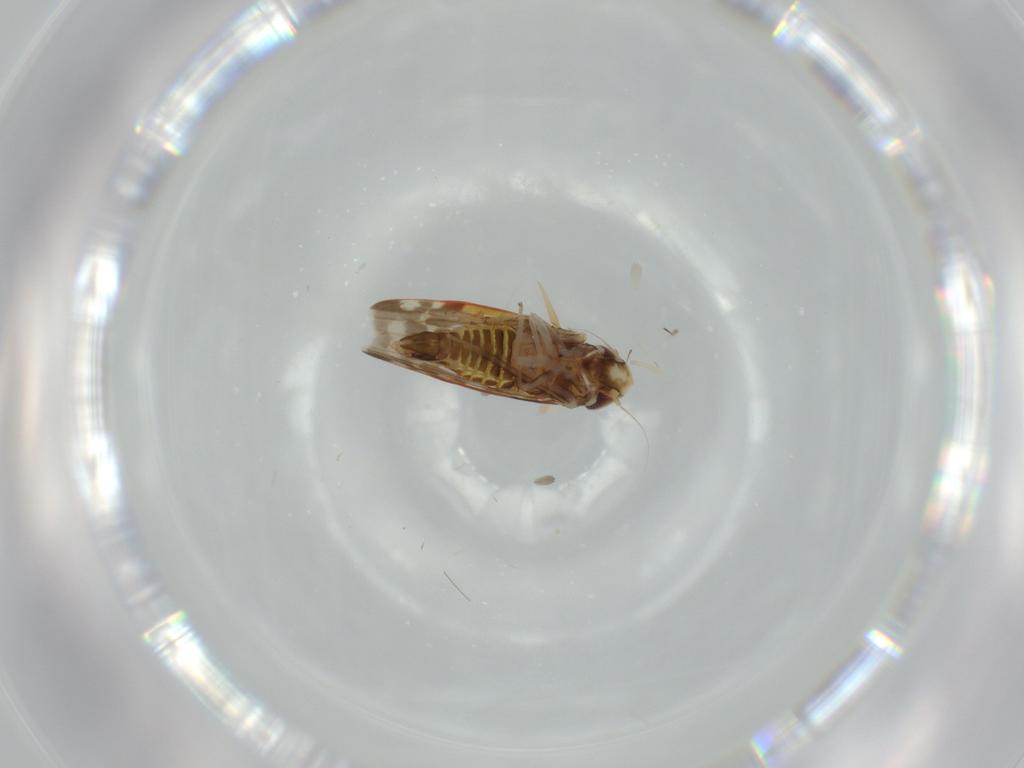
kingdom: Animalia
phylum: Arthropoda
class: Insecta
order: Hemiptera
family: Cicadellidae
